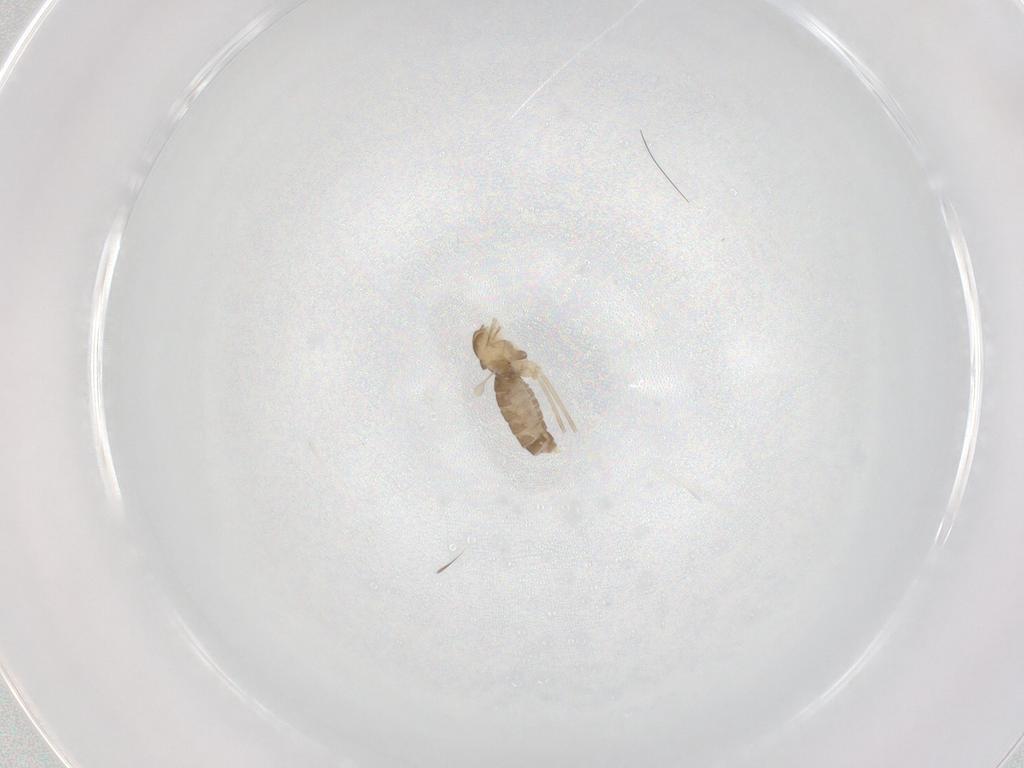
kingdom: Animalia
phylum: Arthropoda
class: Insecta
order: Diptera
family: Cecidomyiidae
